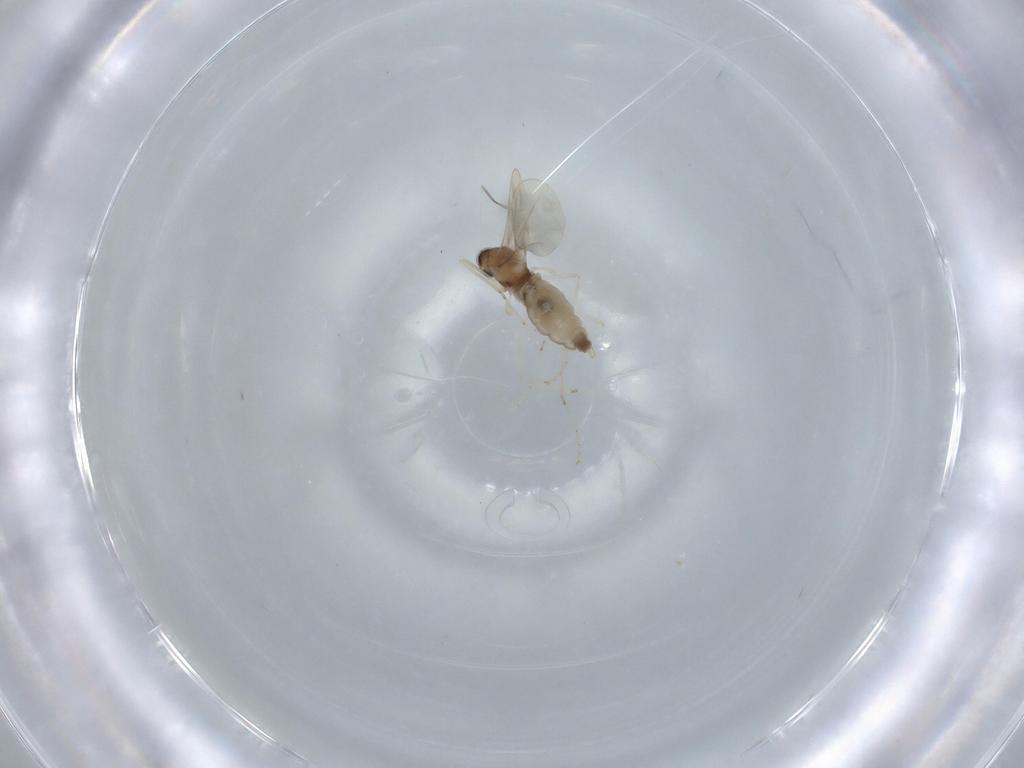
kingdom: Animalia
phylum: Arthropoda
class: Insecta
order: Diptera
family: Cecidomyiidae
